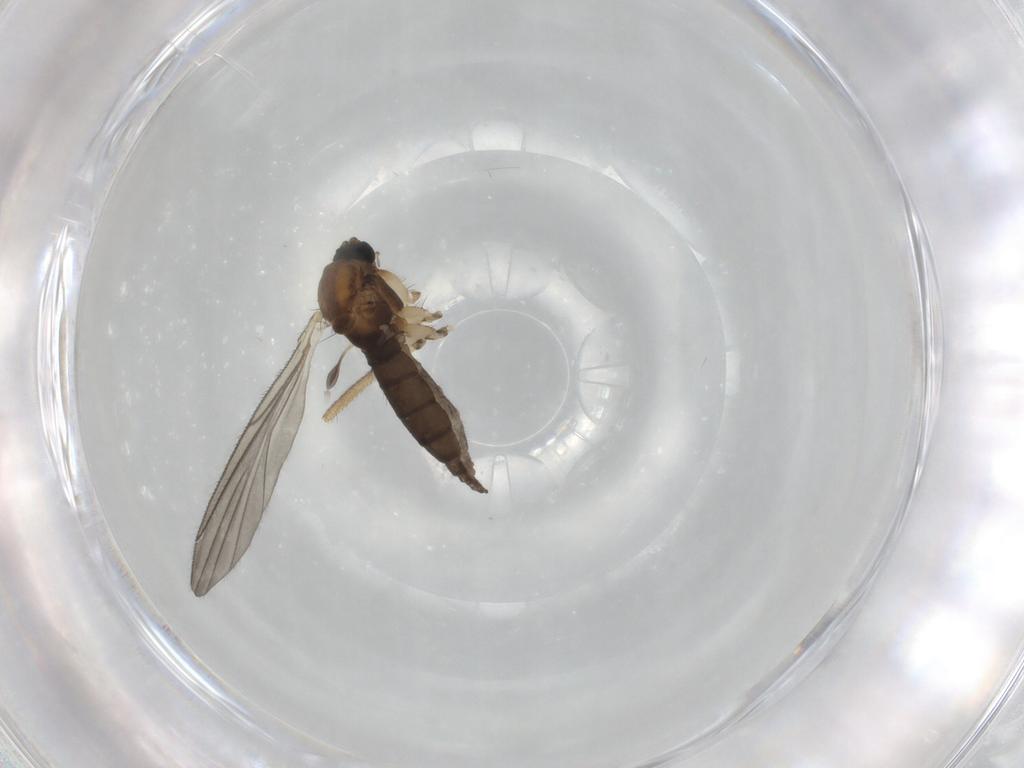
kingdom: Animalia
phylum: Arthropoda
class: Insecta
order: Diptera
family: Sciaridae
